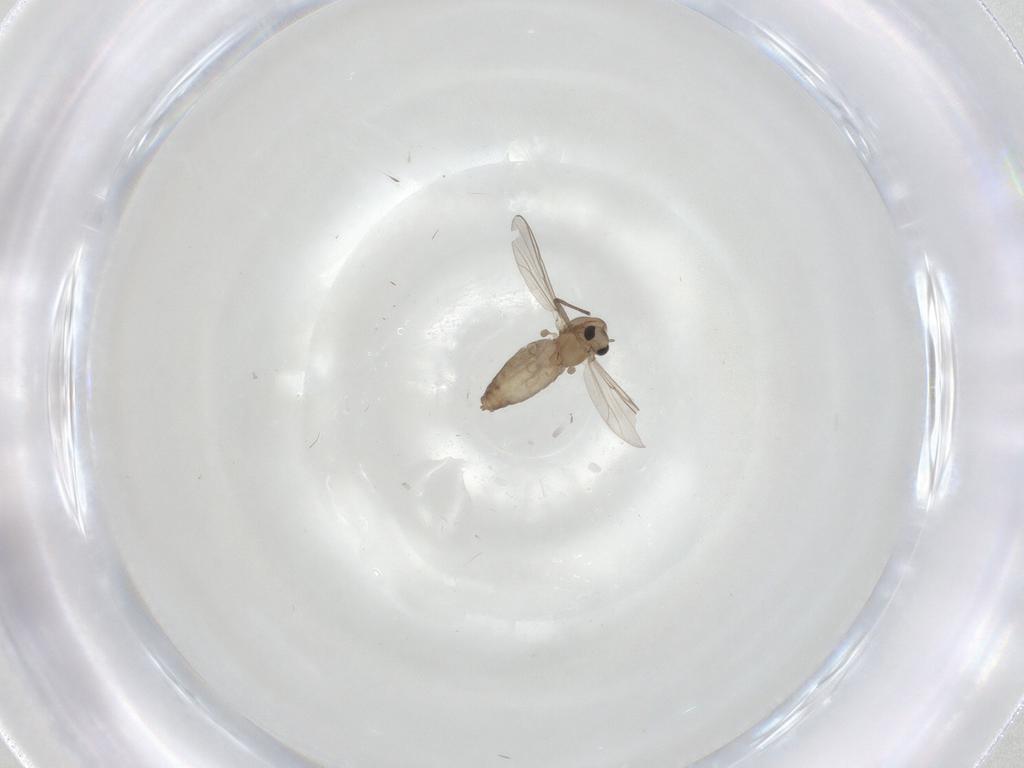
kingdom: Animalia
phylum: Arthropoda
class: Insecta
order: Diptera
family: Chironomidae
